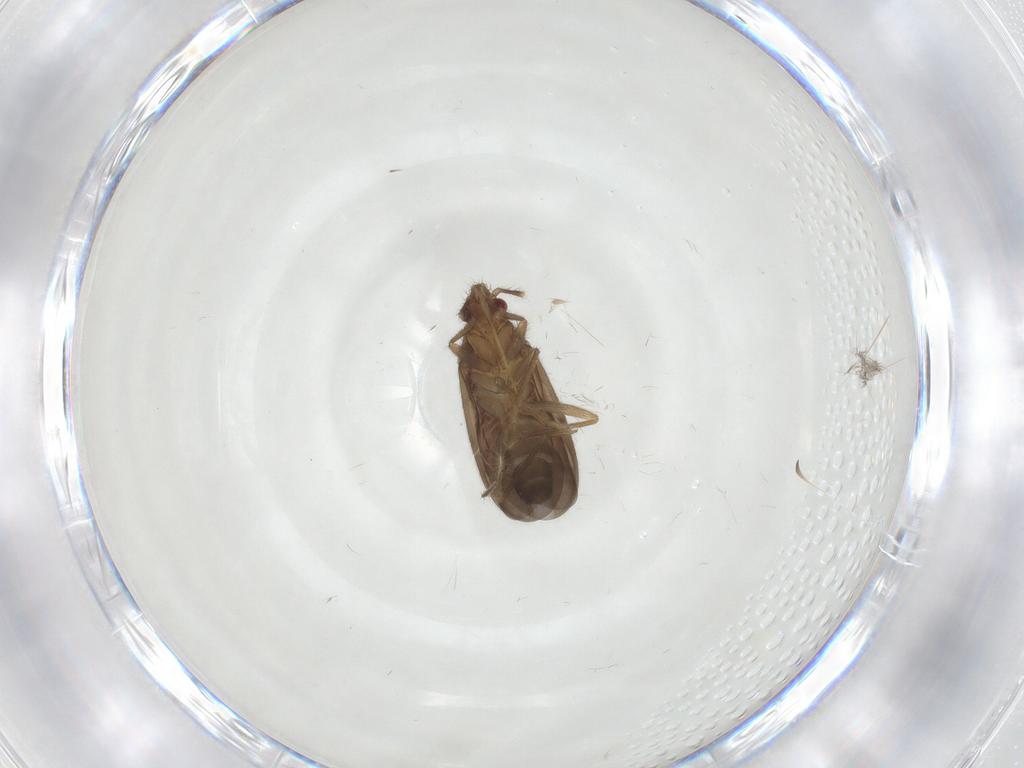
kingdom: Animalia
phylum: Arthropoda
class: Insecta
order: Hemiptera
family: Ceratocombidae
